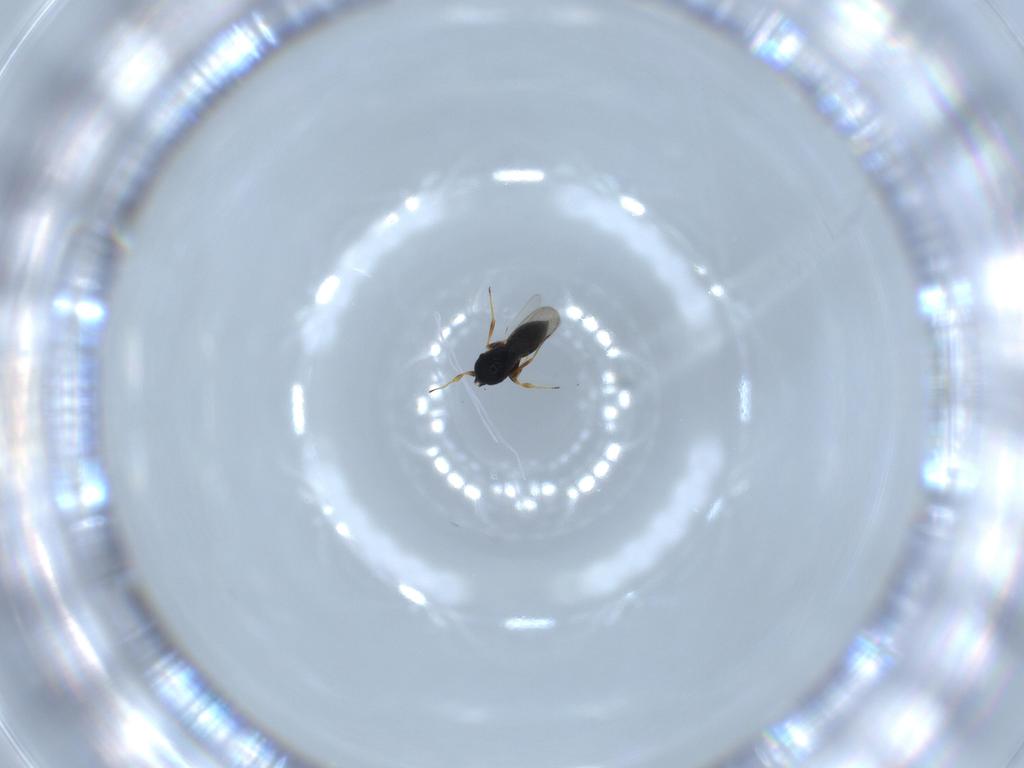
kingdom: Animalia
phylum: Arthropoda
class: Insecta
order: Hymenoptera
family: Scelionidae
